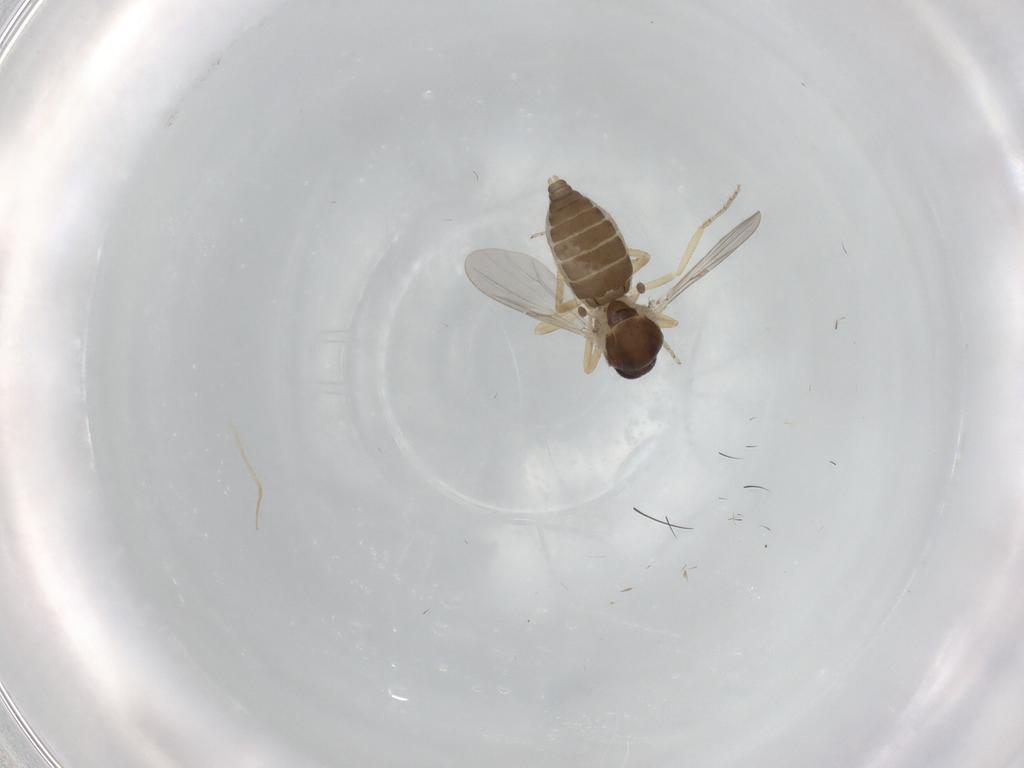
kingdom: Animalia
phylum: Arthropoda
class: Insecta
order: Diptera
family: Ceratopogonidae
